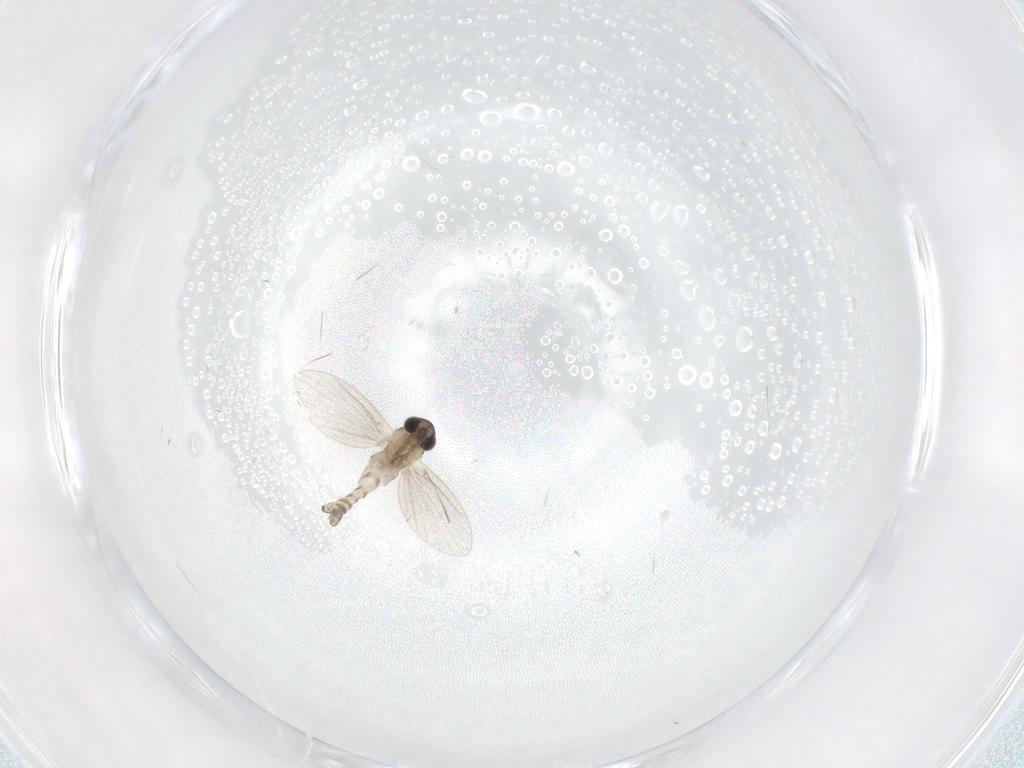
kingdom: Animalia
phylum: Arthropoda
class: Insecta
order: Diptera
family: Psychodidae
